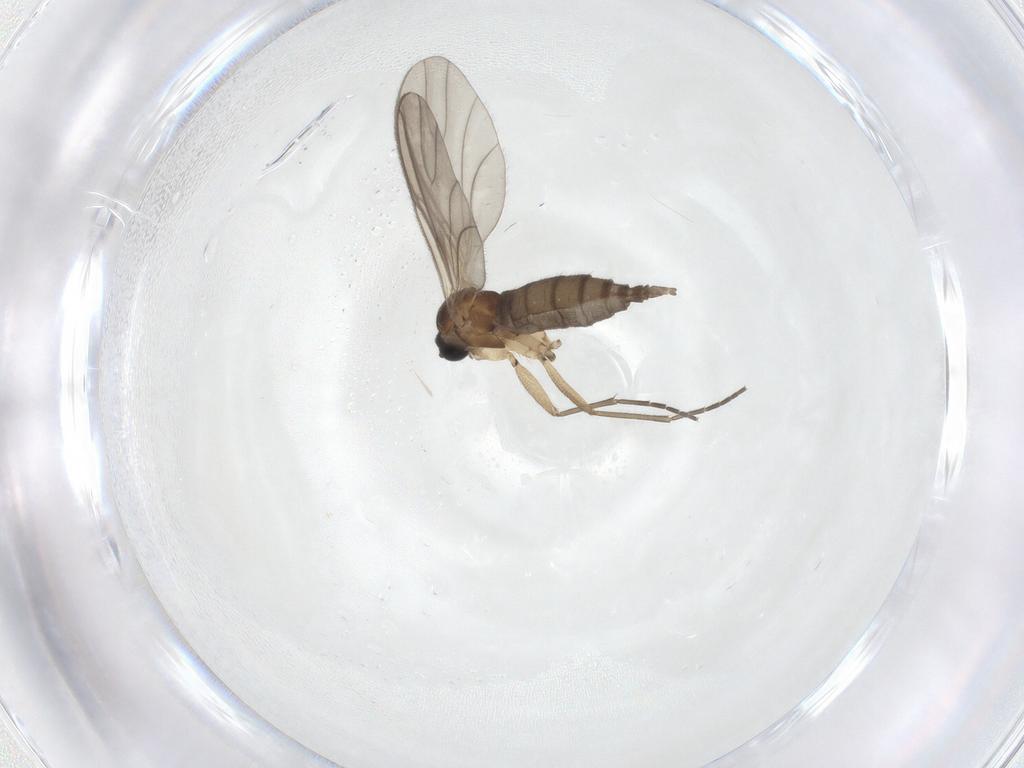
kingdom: Animalia
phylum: Arthropoda
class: Insecta
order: Diptera
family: Sciaridae
